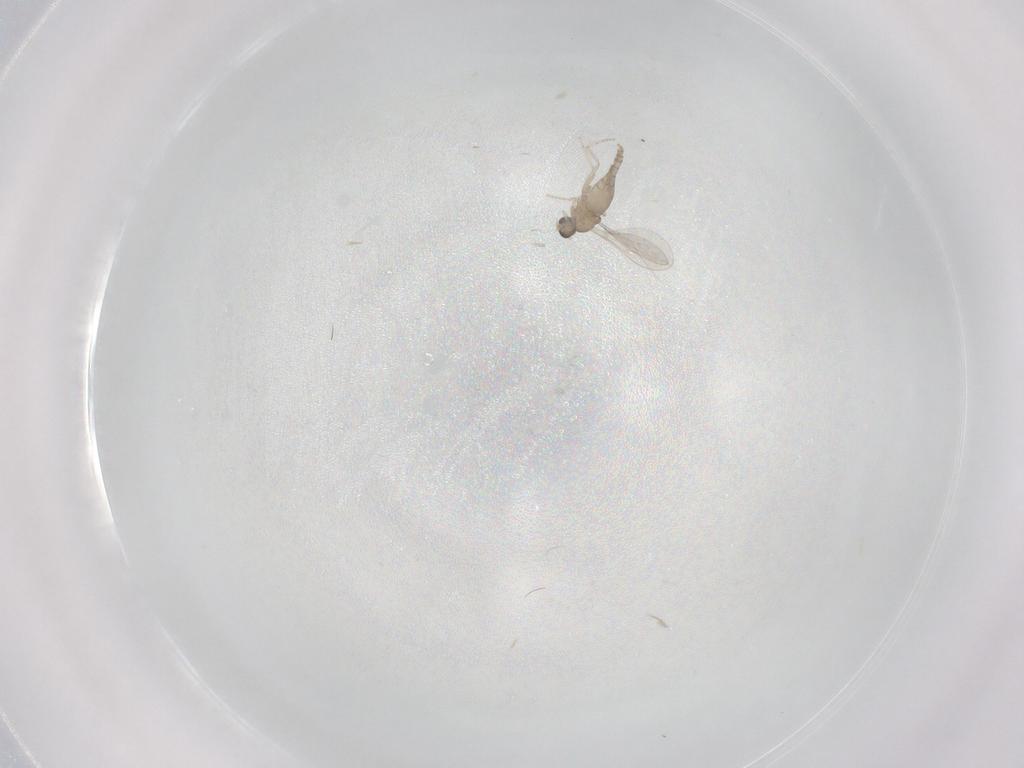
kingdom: Animalia
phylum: Arthropoda
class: Insecta
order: Diptera
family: Cecidomyiidae
